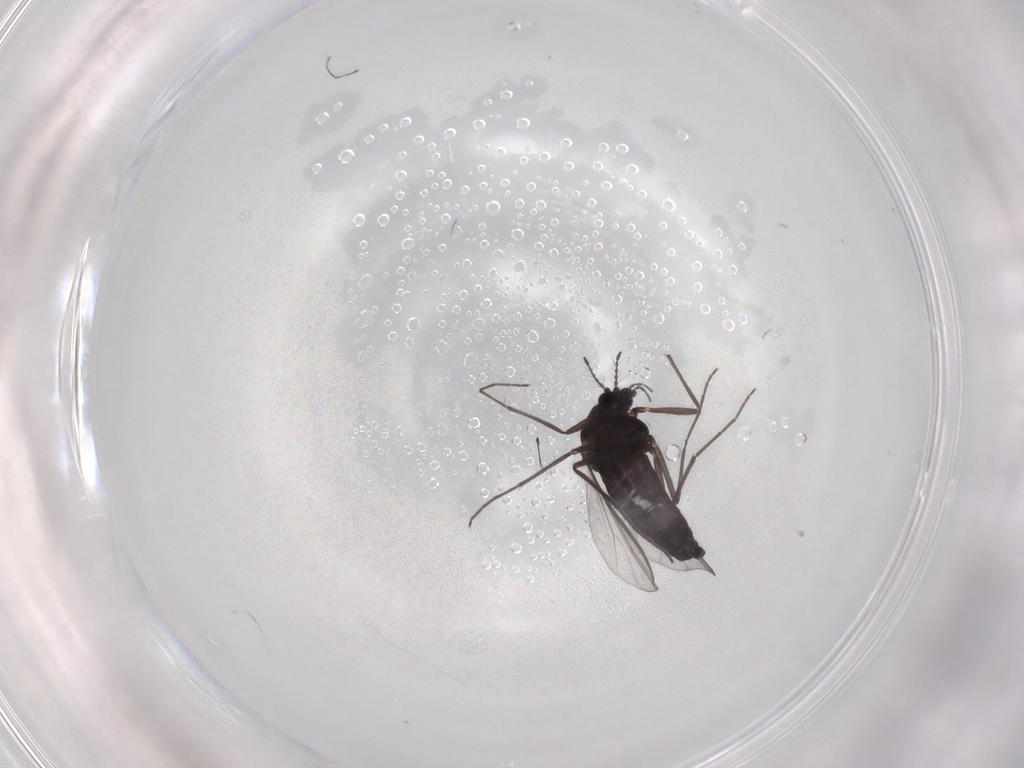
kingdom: Animalia
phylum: Arthropoda
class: Insecta
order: Diptera
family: Chironomidae
